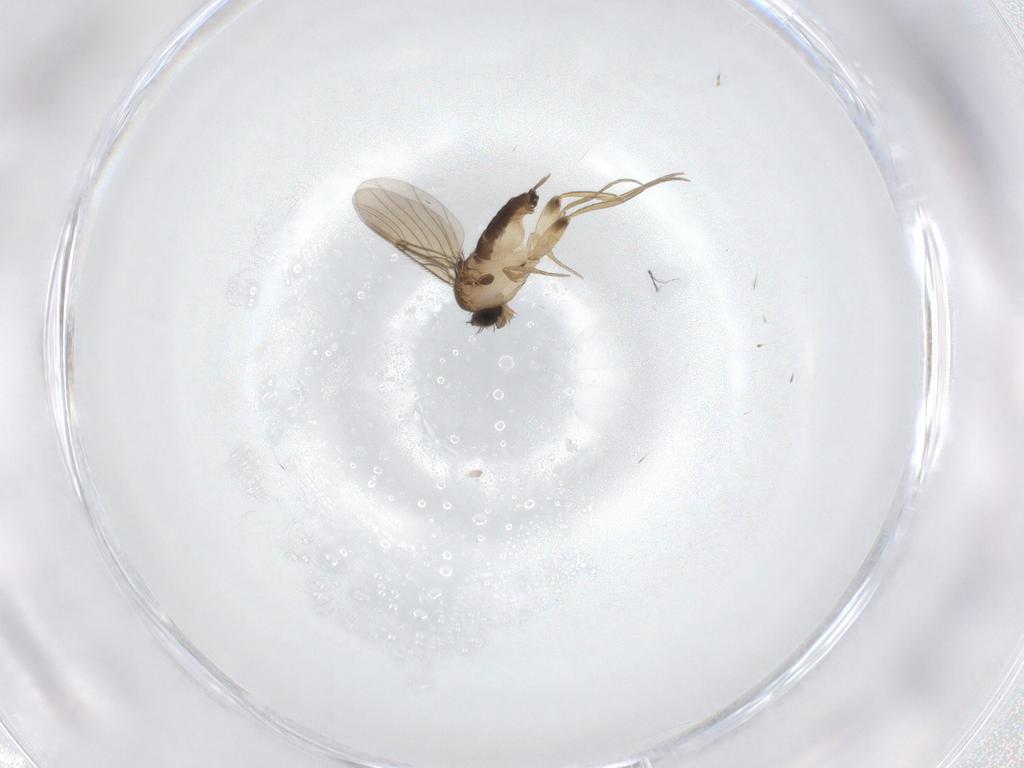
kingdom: Animalia
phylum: Arthropoda
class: Insecta
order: Diptera
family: Phoridae
